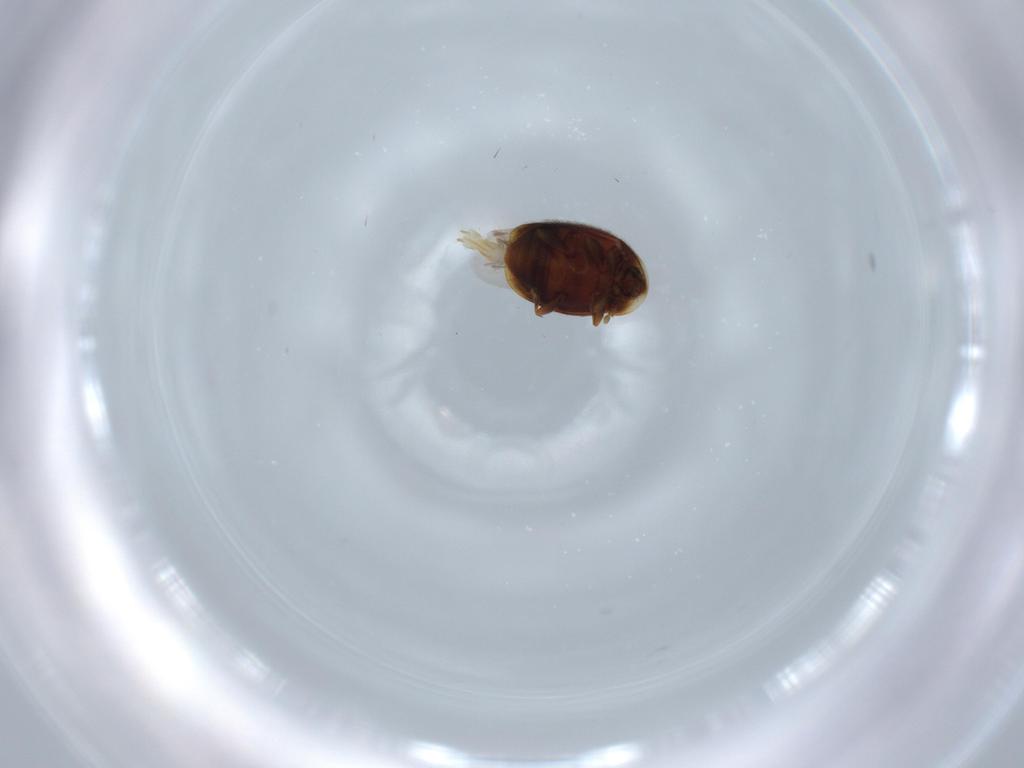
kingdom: Animalia
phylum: Arthropoda
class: Insecta
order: Coleoptera
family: Corylophidae
